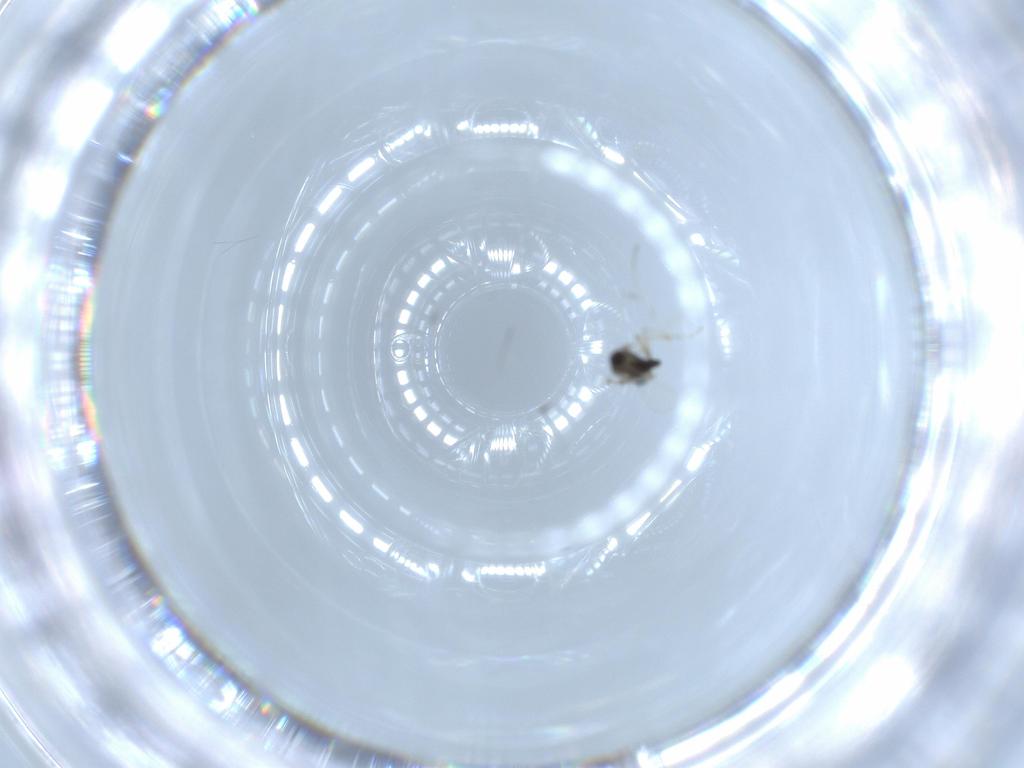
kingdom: Animalia
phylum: Arthropoda
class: Insecta
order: Diptera
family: Chironomidae
